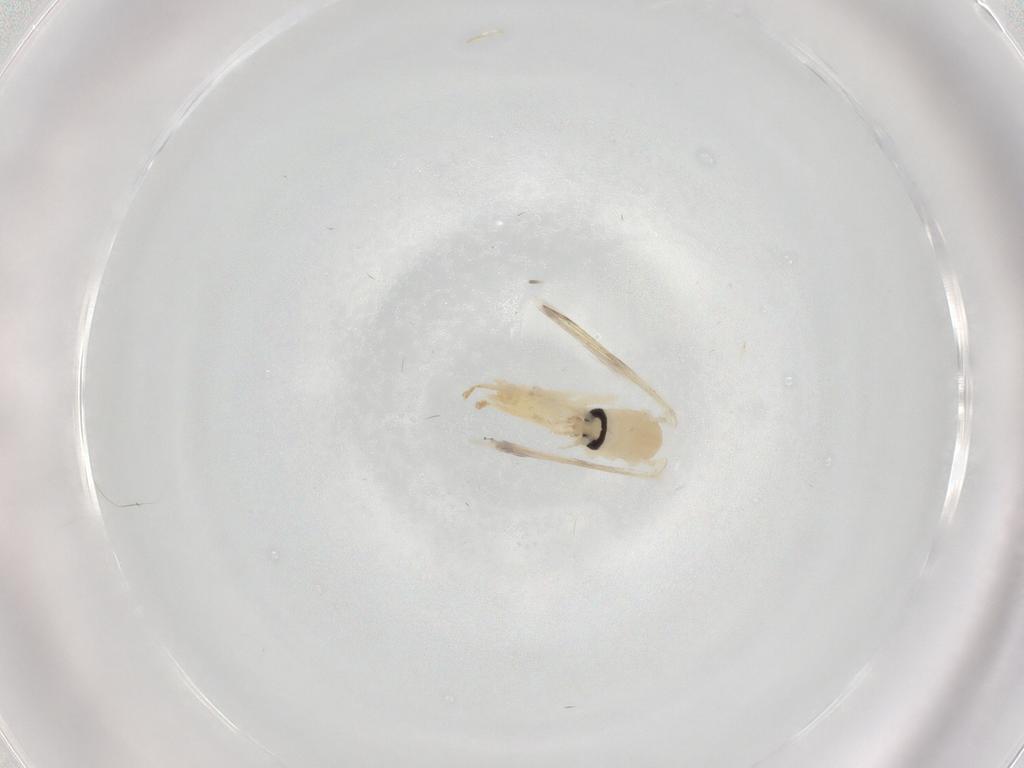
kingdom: Animalia
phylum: Arthropoda
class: Insecta
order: Diptera
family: Psychodidae
